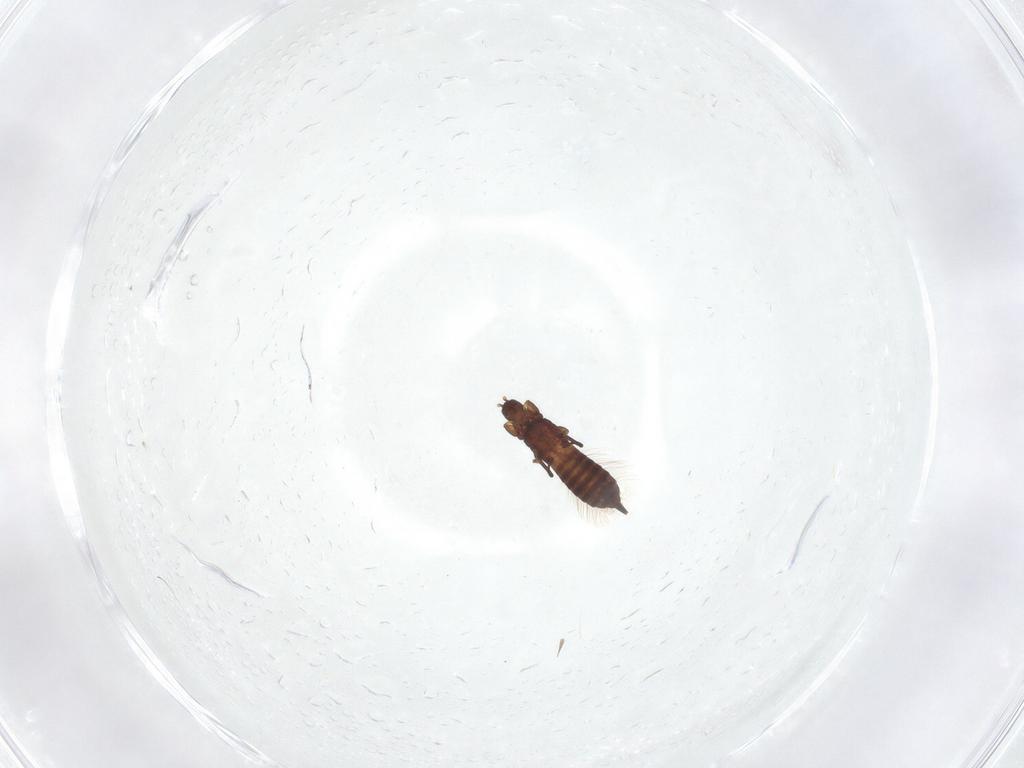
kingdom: Animalia
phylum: Arthropoda
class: Insecta
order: Thysanoptera
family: Phlaeothripidae
